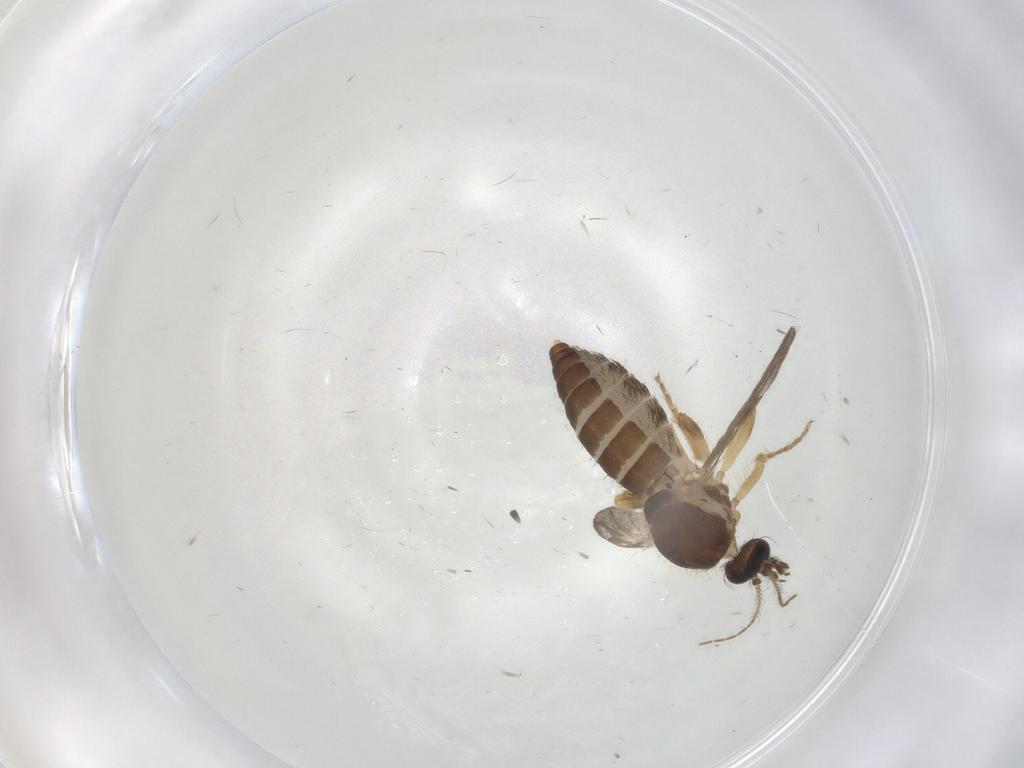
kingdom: Animalia
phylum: Arthropoda
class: Insecta
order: Diptera
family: Ceratopogonidae
